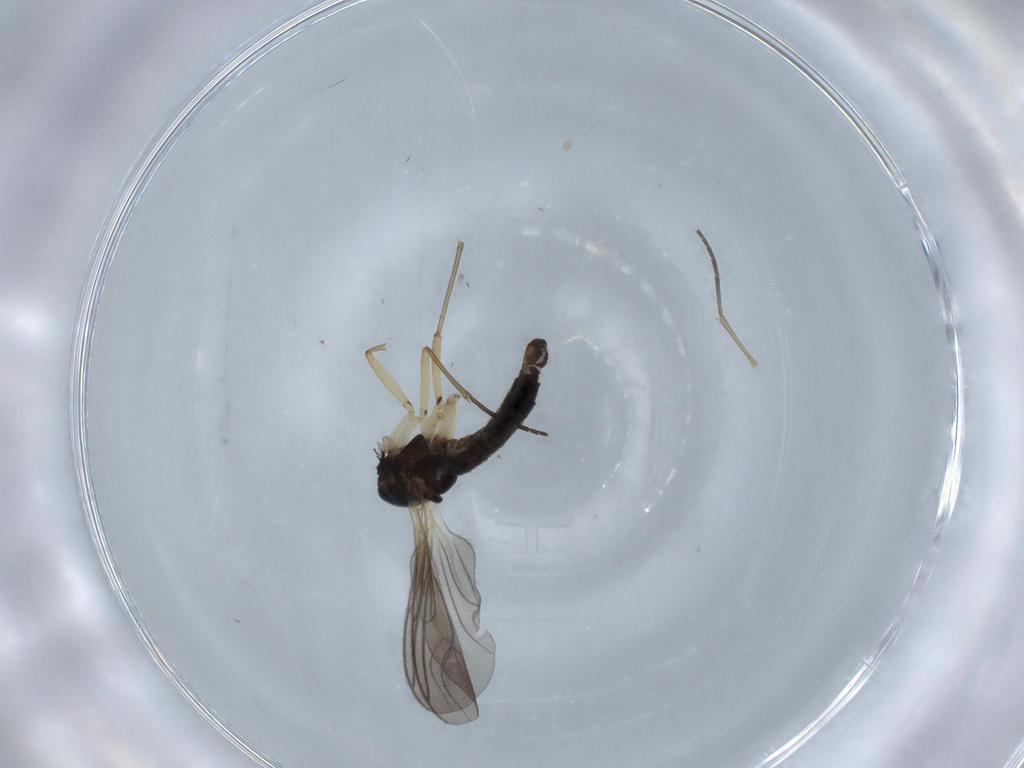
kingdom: Animalia
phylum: Arthropoda
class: Insecta
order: Diptera
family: Sciaridae
